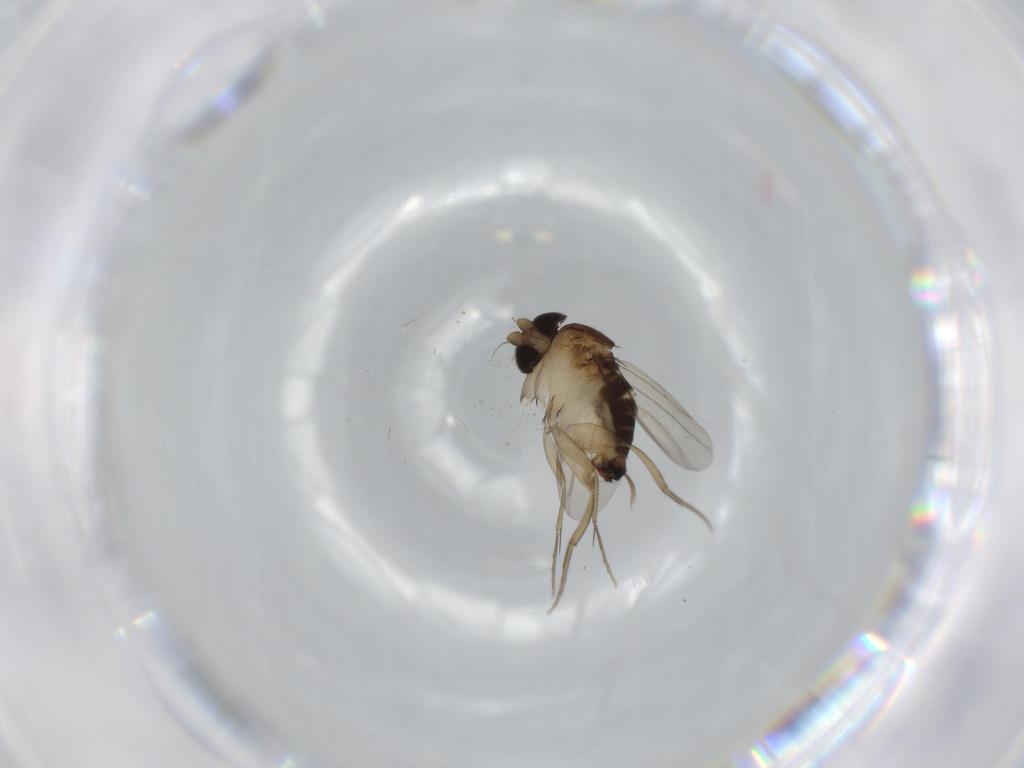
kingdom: Animalia
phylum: Arthropoda
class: Insecta
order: Diptera
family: Phoridae
